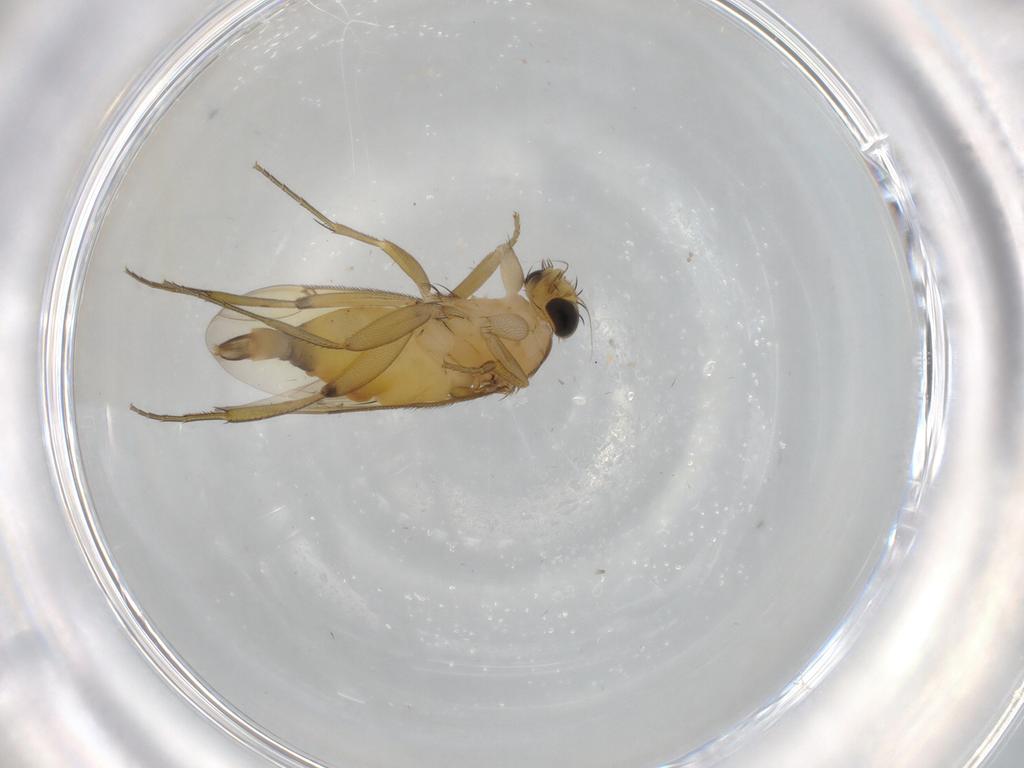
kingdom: Animalia
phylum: Arthropoda
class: Insecta
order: Diptera
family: Phoridae
